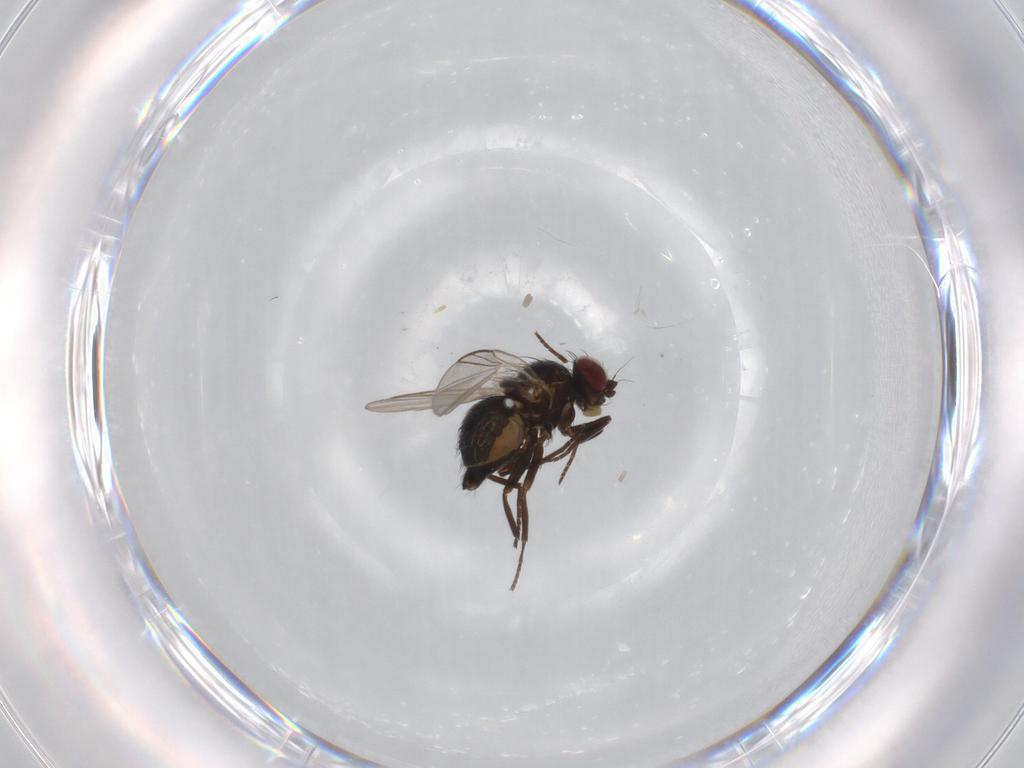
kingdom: Animalia
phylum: Arthropoda
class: Insecta
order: Diptera
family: Ceratopogonidae
